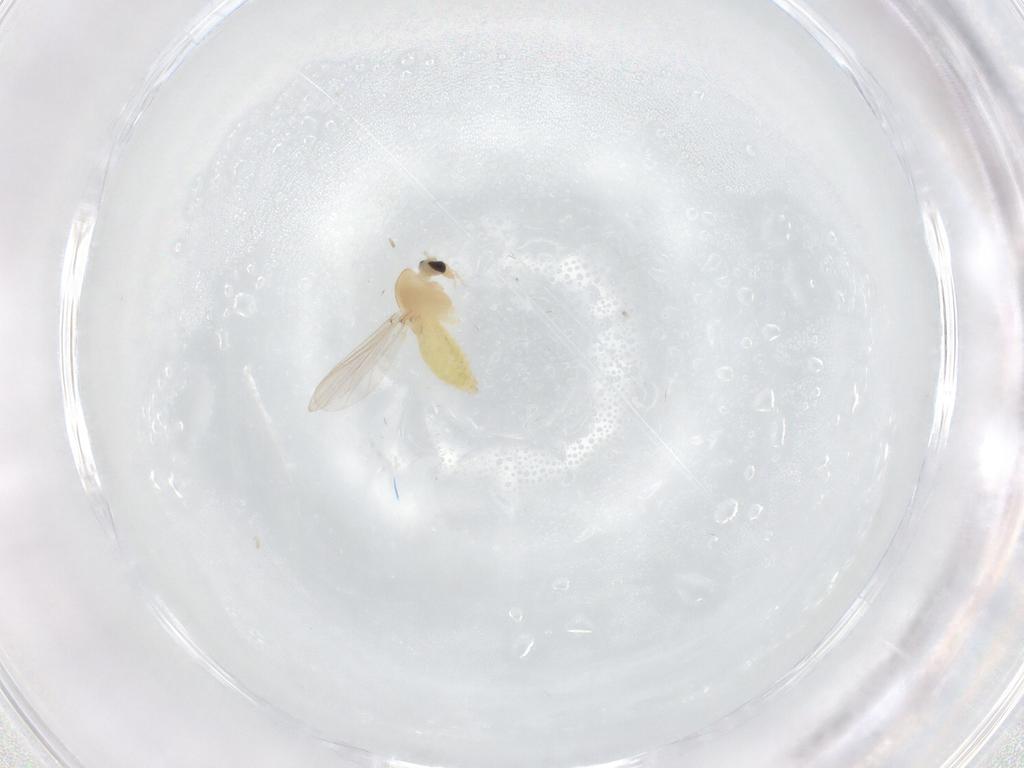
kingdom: Animalia
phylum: Arthropoda
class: Insecta
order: Diptera
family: Chironomidae
